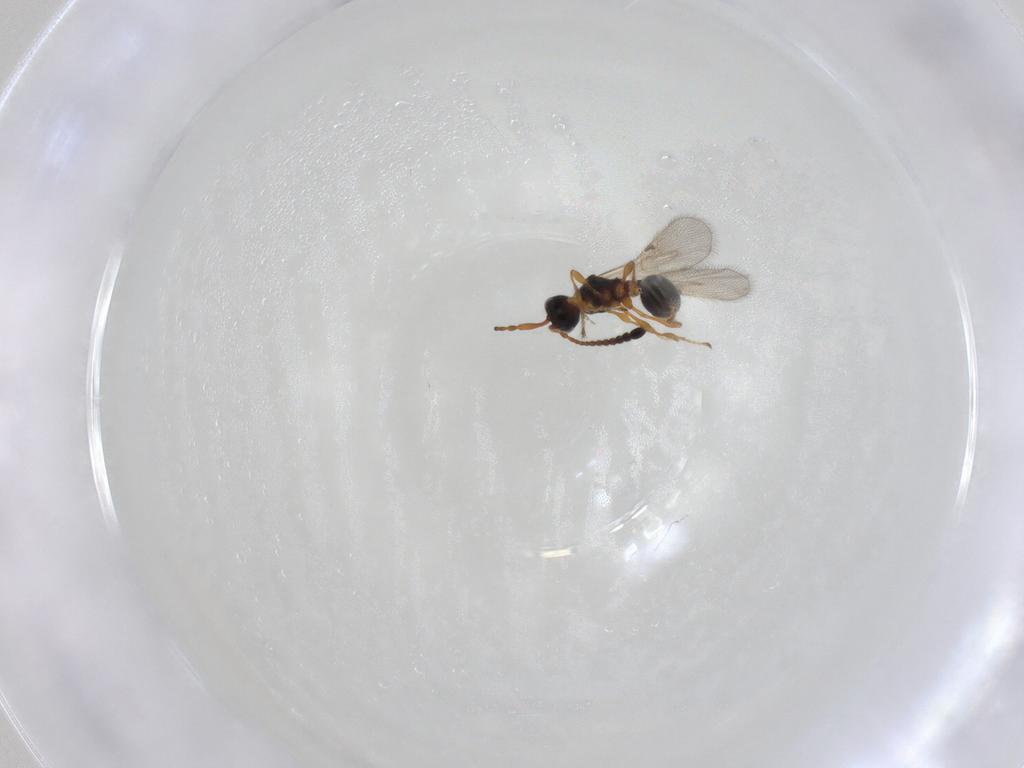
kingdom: Animalia
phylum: Arthropoda
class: Insecta
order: Hymenoptera
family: Diapriidae
